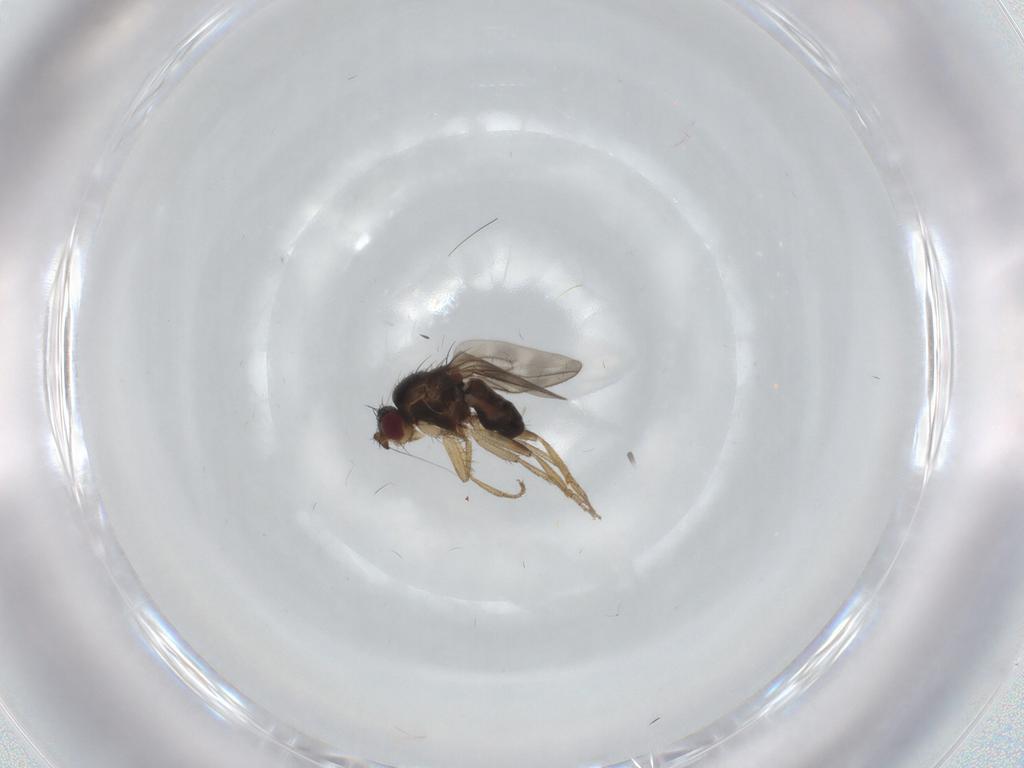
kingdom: Animalia
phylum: Arthropoda
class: Insecta
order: Diptera
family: Sphaeroceridae
